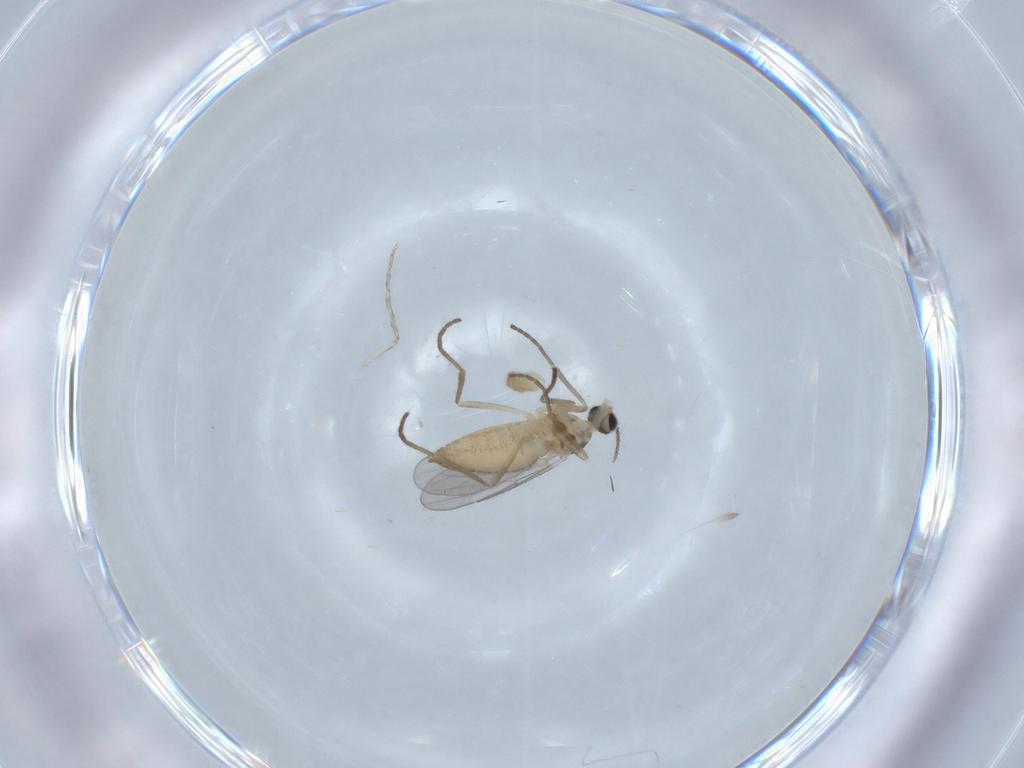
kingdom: Animalia
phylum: Arthropoda
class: Insecta
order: Diptera
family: Cecidomyiidae
